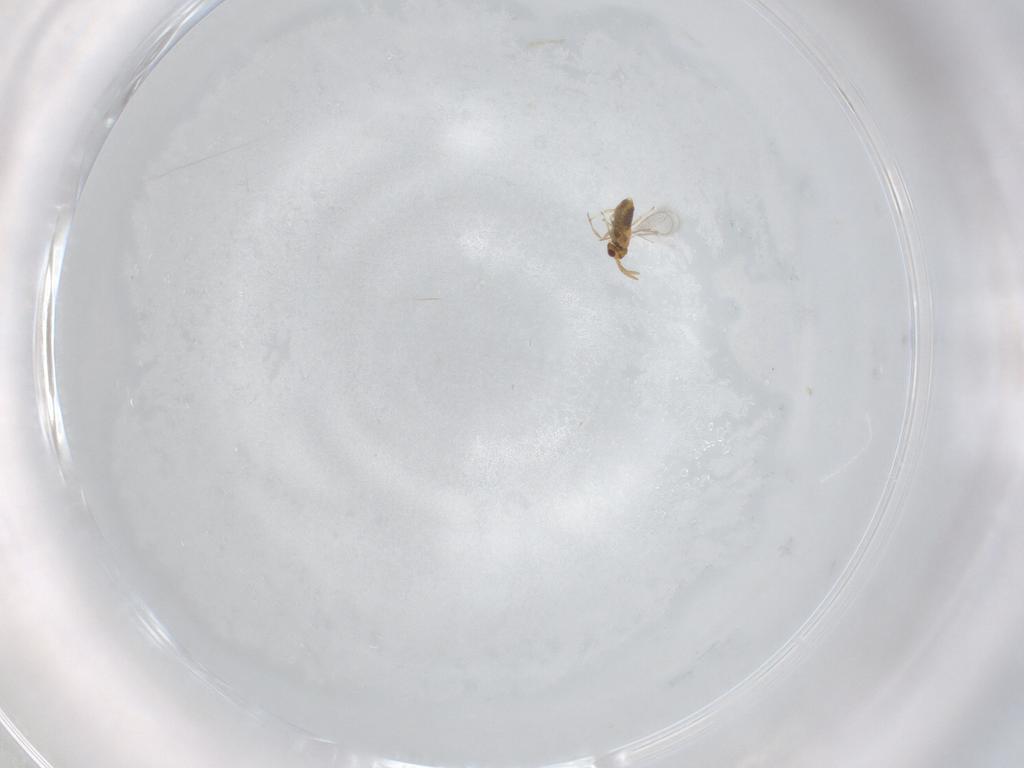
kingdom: Animalia
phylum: Arthropoda
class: Insecta
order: Hymenoptera
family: Aphelinidae
